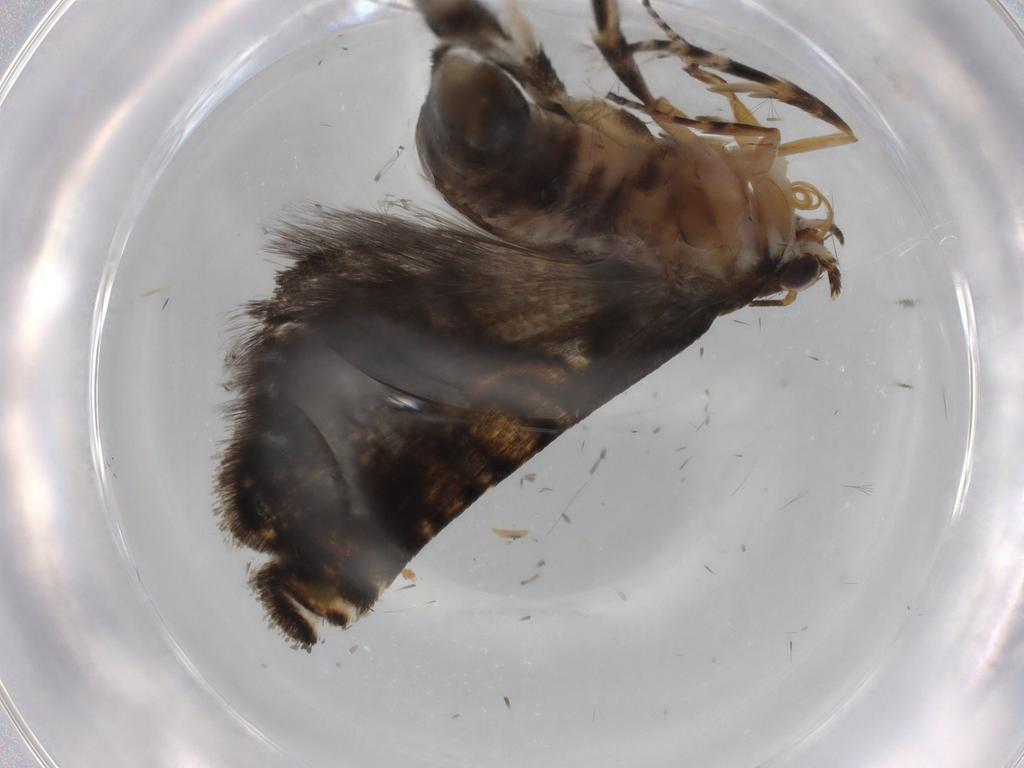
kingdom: Animalia
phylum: Arthropoda
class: Insecta
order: Lepidoptera
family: Glyphipterigidae
